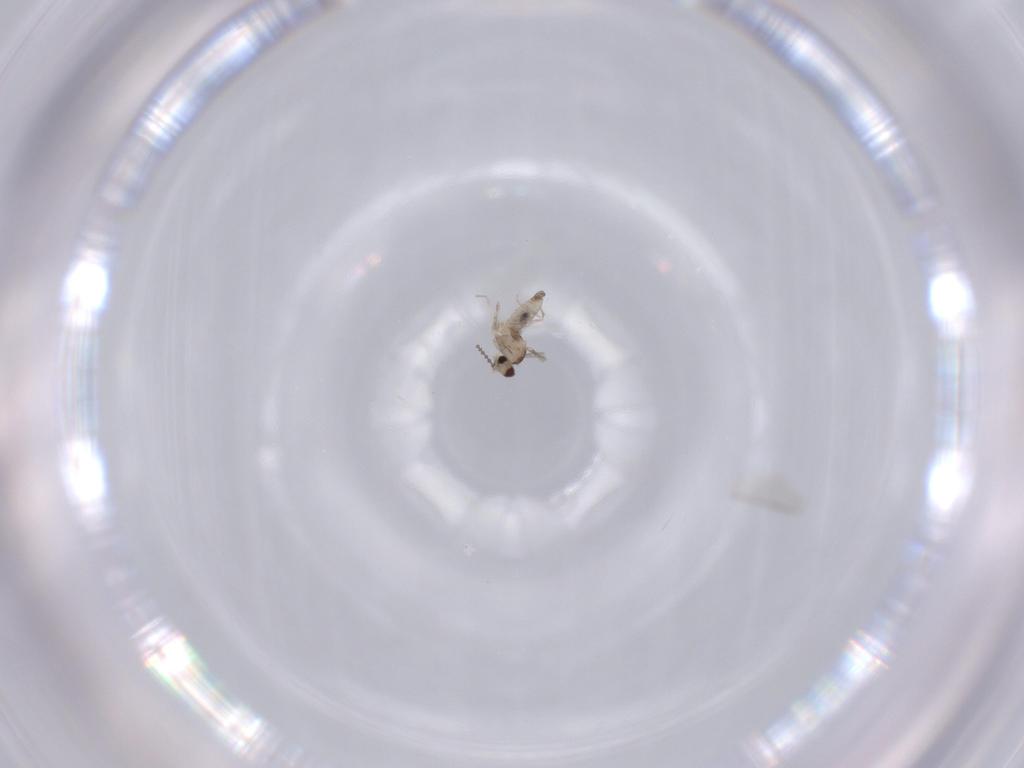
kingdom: Animalia
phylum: Arthropoda
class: Insecta
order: Diptera
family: Cecidomyiidae
